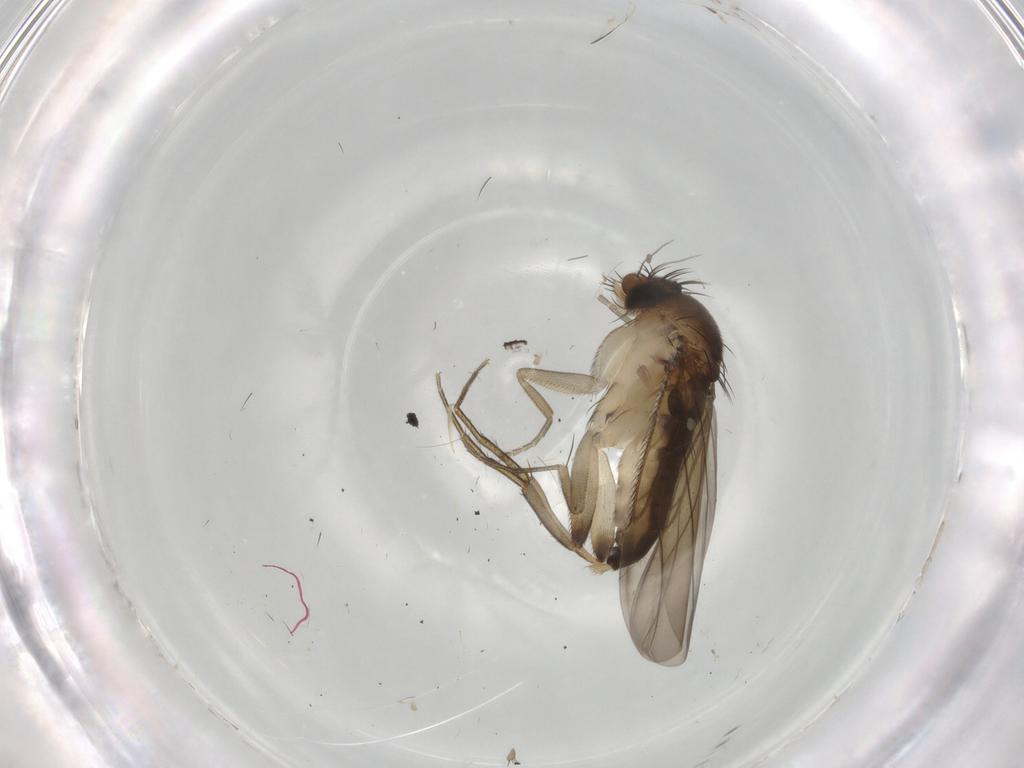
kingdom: Animalia
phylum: Arthropoda
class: Insecta
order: Diptera
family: Phoridae
